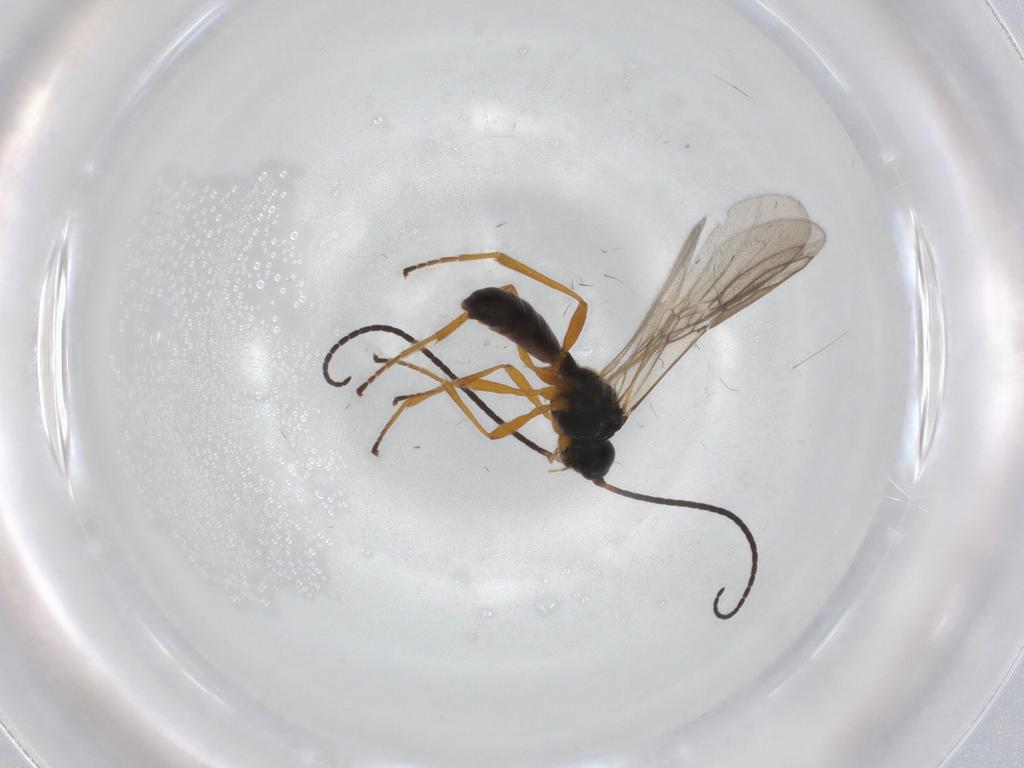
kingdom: Animalia
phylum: Arthropoda
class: Insecta
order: Hymenoptera
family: Braconidae
